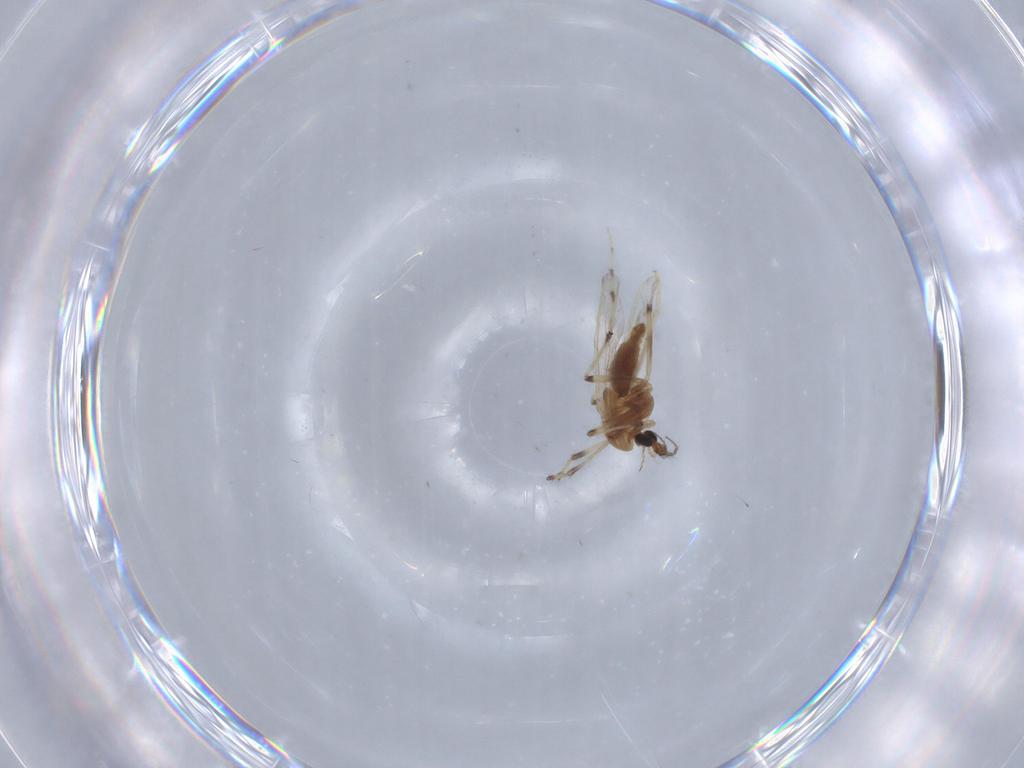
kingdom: Animalia
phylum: Arthropoda
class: Insecta
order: Diptera
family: Chironomidae
